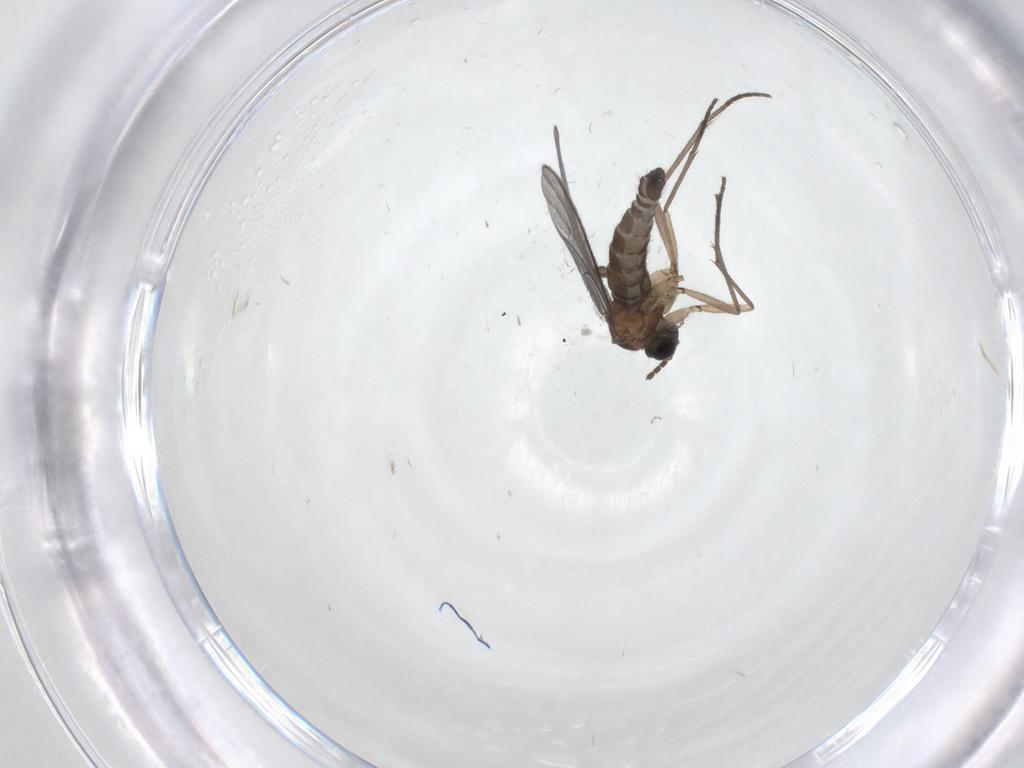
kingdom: Animalia
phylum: Arthropoda
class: Insecta
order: Diptera
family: Sciaridae
